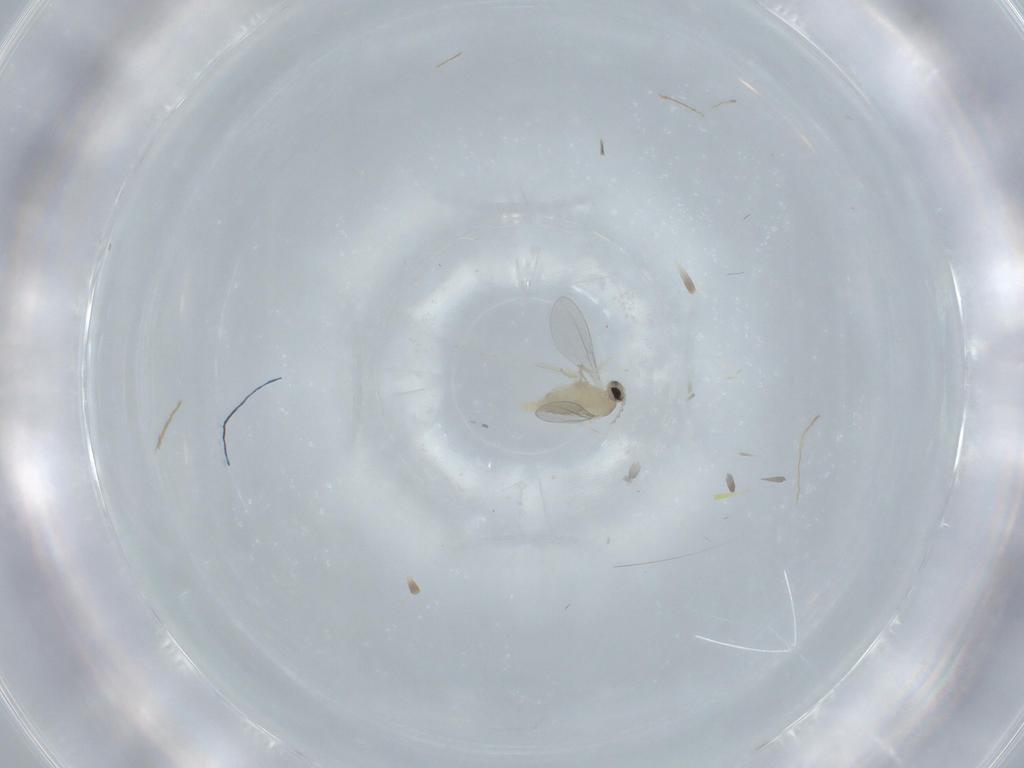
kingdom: Animalia
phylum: Arthropoda
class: Insecta
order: Diptera
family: Cecidomyiidae
